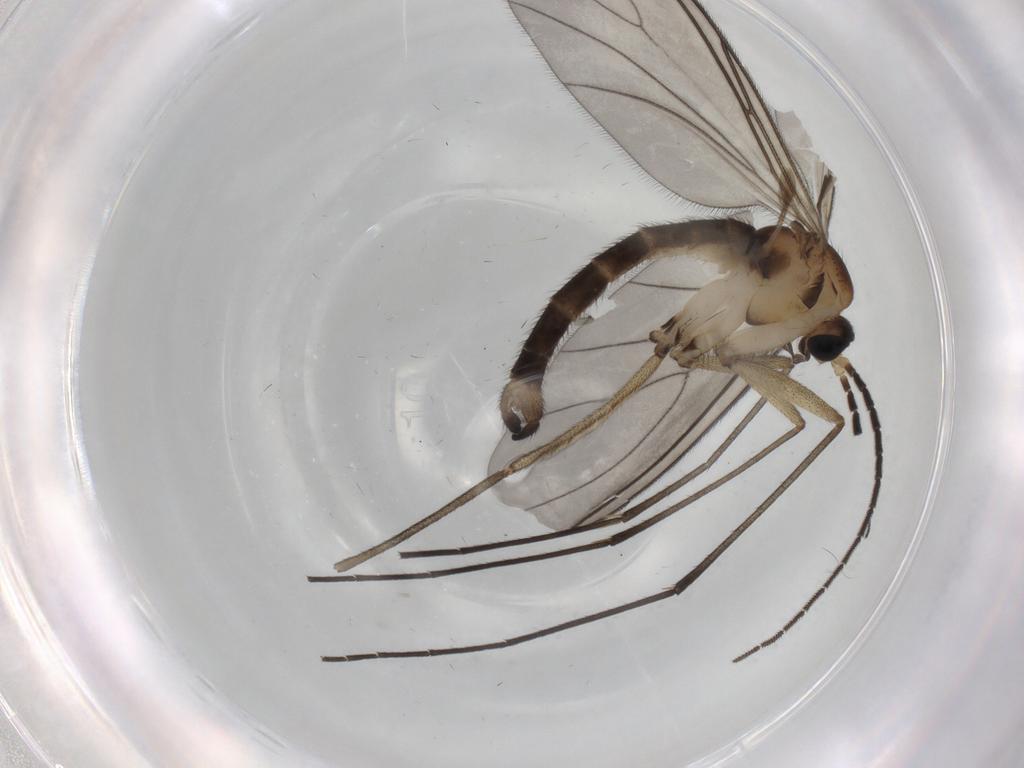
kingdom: Animalia
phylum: Arthropoda
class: Insecta
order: Diptera
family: Sciaridae
